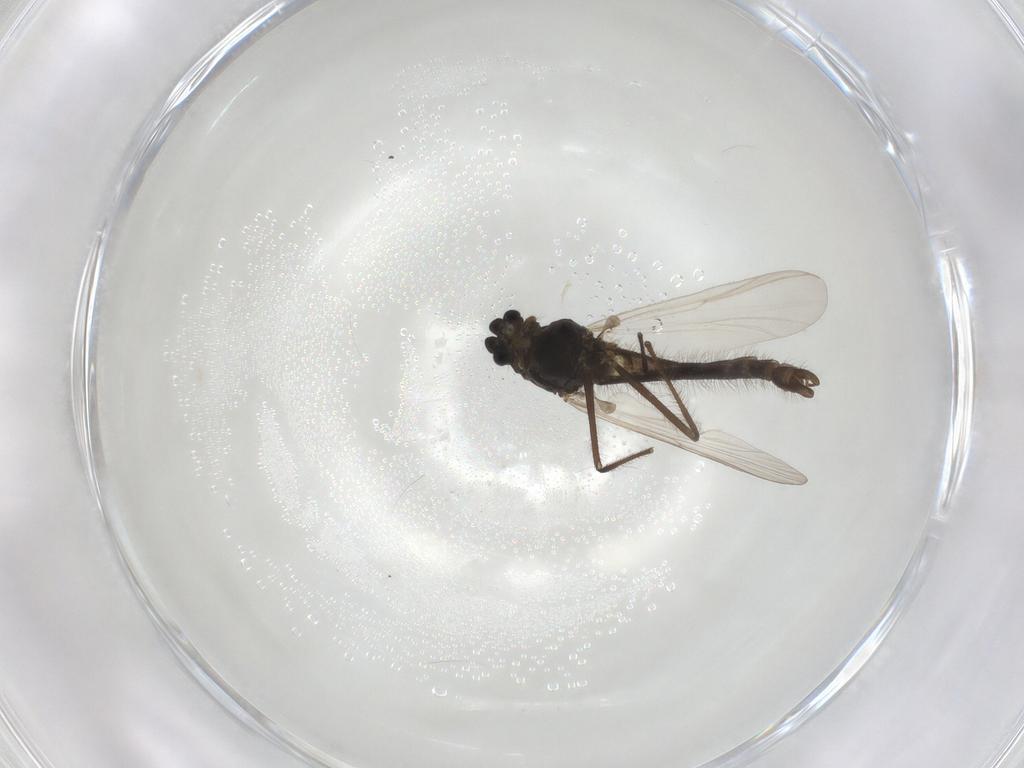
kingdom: Animalia
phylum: Arthropoda
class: Insecta
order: Diptera
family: Chironomidae
